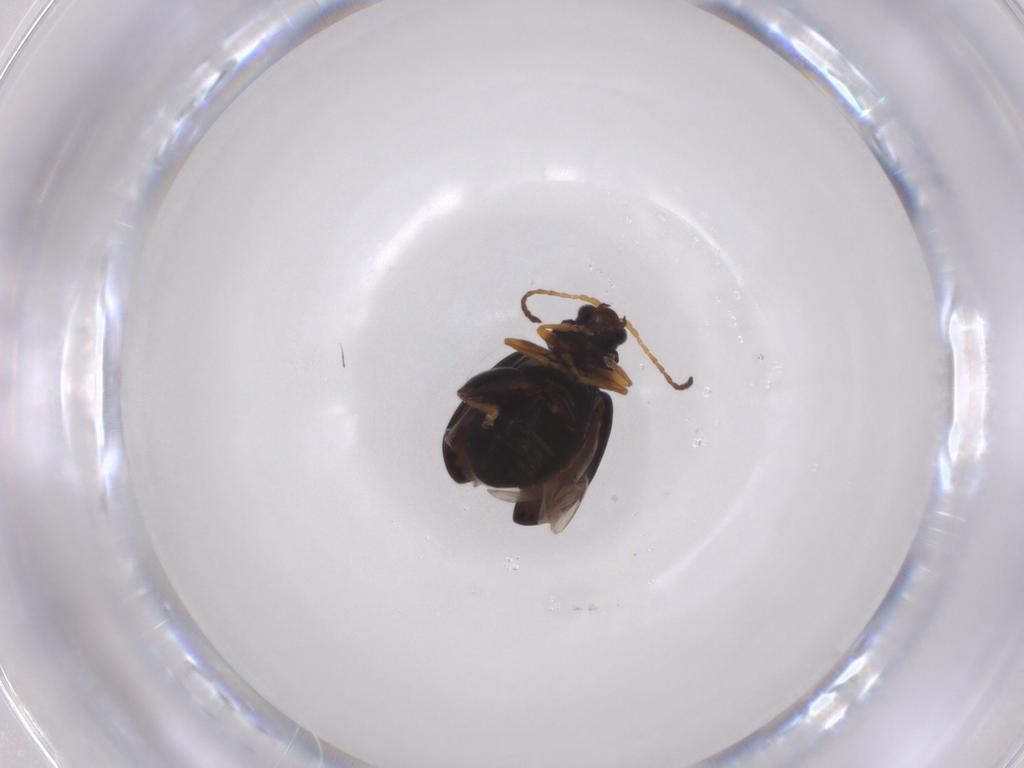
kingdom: Animalia
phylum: Arthropoda
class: Insecta
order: Coleoptera
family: Chrysomelidae
